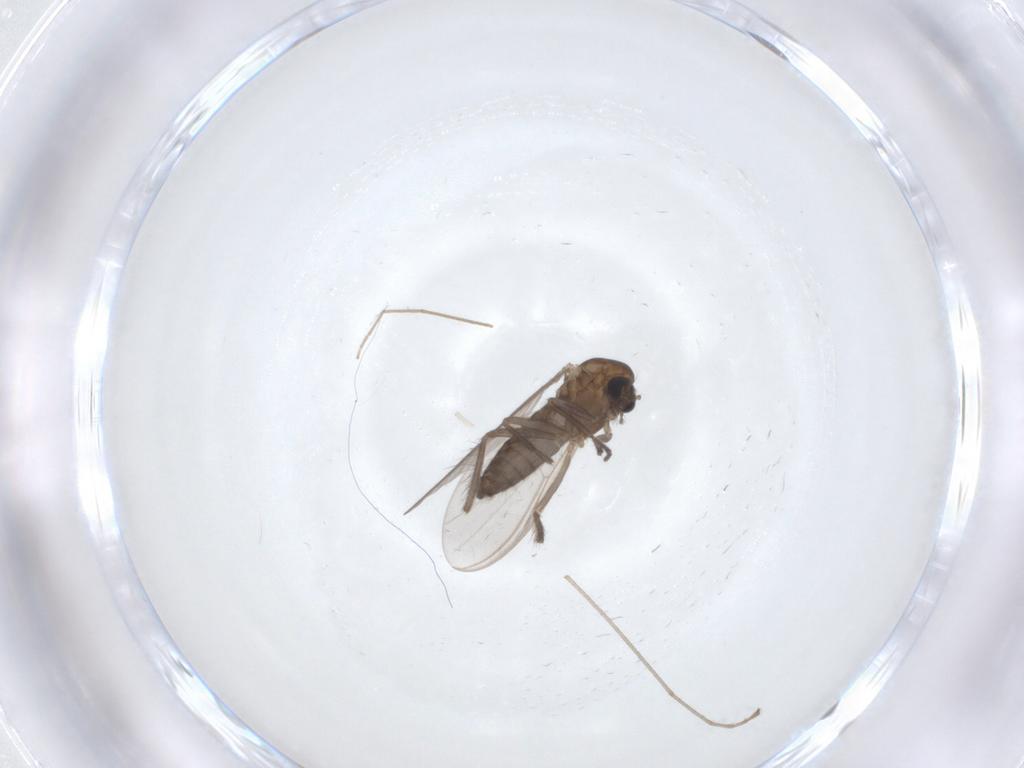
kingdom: Animalia
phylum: Arthropoda
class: Insecta
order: Diptera
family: Chironomidae
